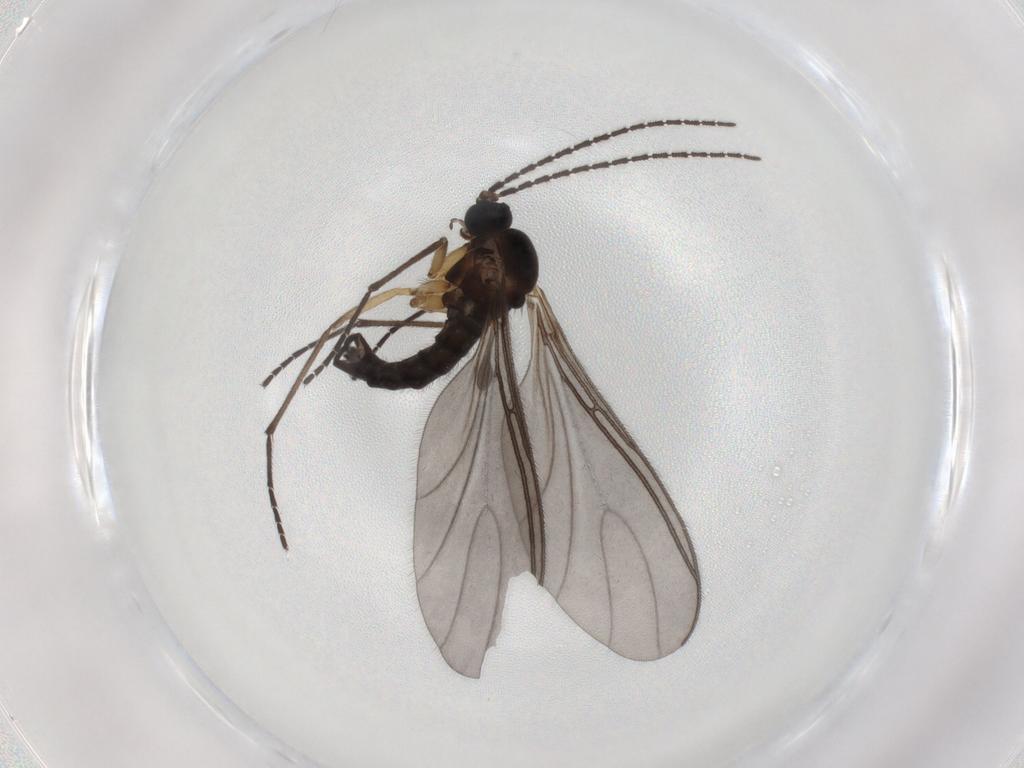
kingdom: Animalia
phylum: Arthropoda
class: Insecta
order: Diptera
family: Sciaridae
